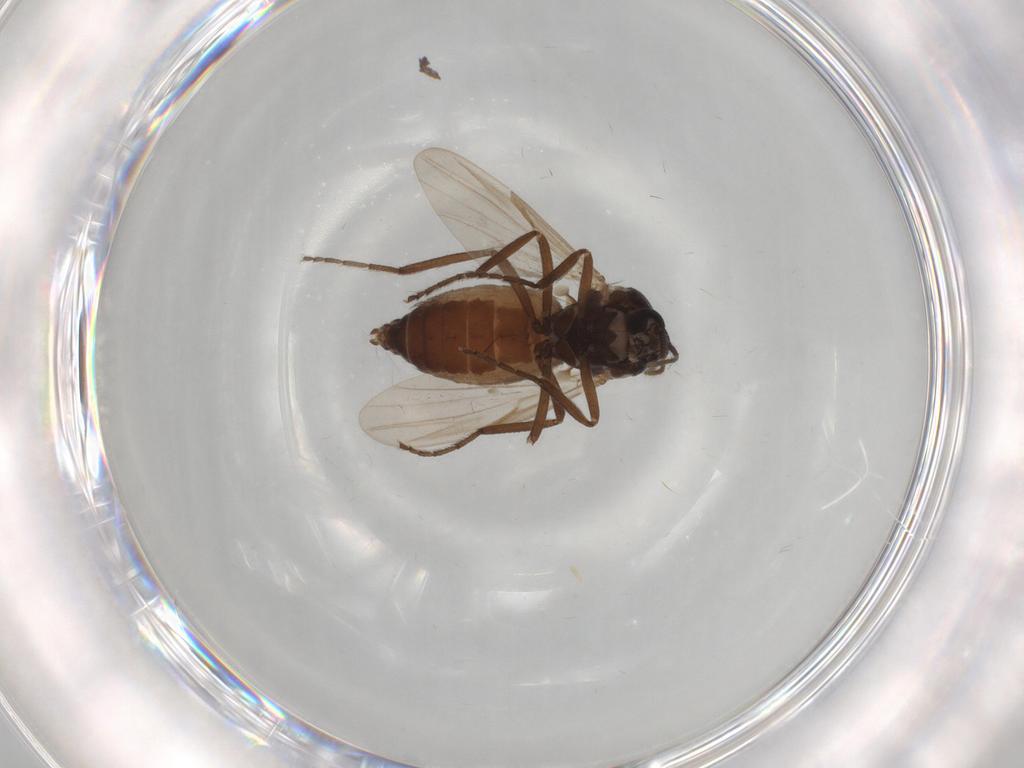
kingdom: Animalia
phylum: Arthropoda
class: Insecta
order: Diptera
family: Ceratopogonidae
